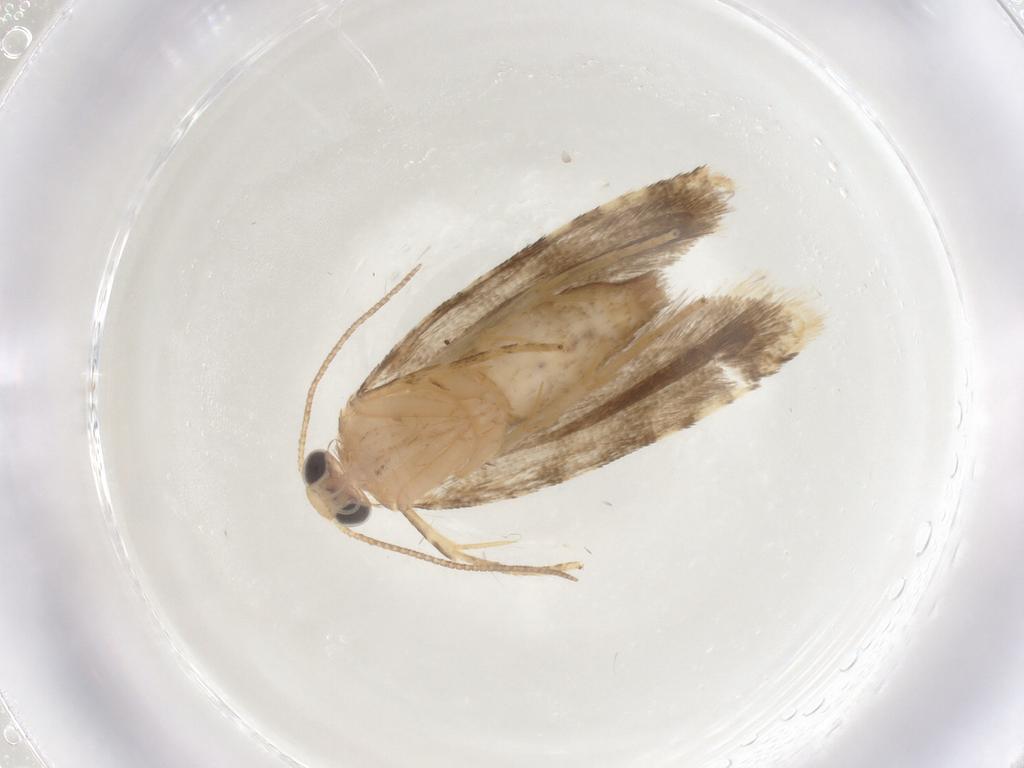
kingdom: Animalia
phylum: Arthropoda
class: Insecta
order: Lepidoptera
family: Tortricidae
